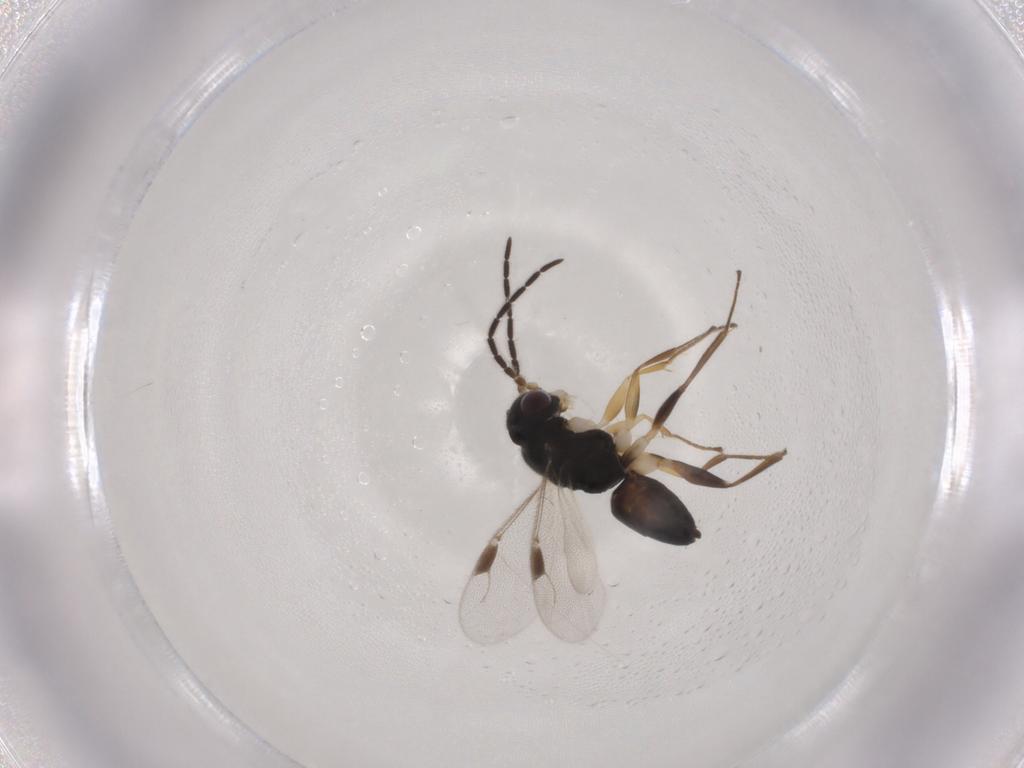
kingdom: Animalia
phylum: Arthropoda
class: Insecta
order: Hymenoptera
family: Dryinidae
